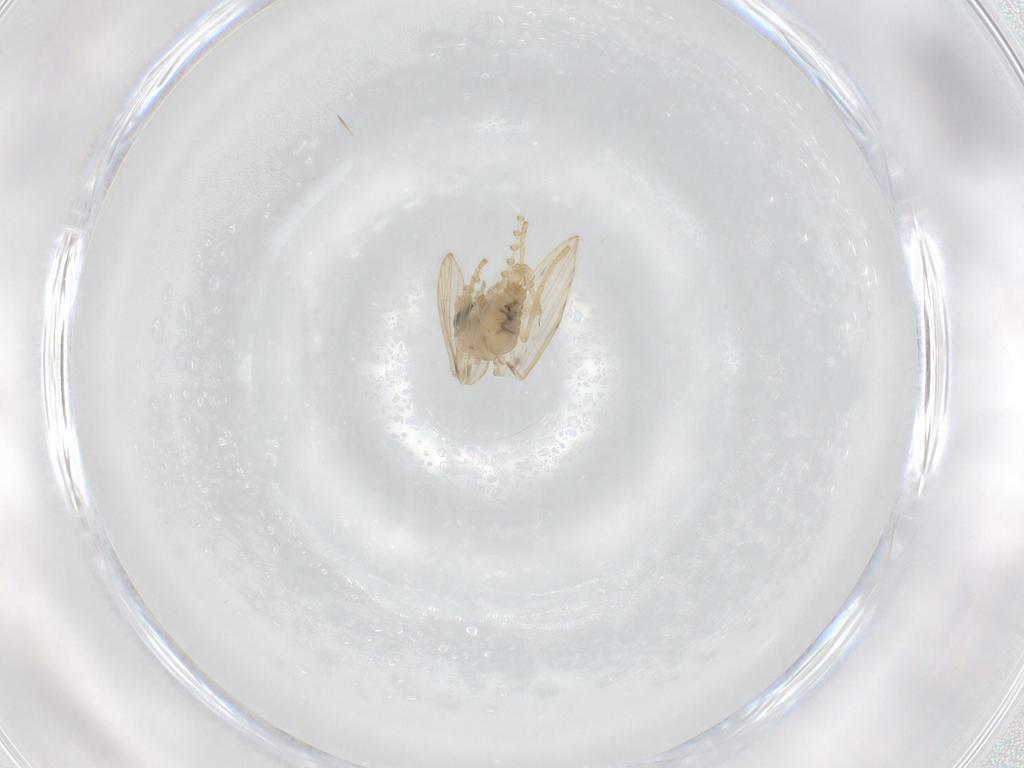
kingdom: Animalia
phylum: Arthropoda
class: Insecta
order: Diptera
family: Psychodidae
